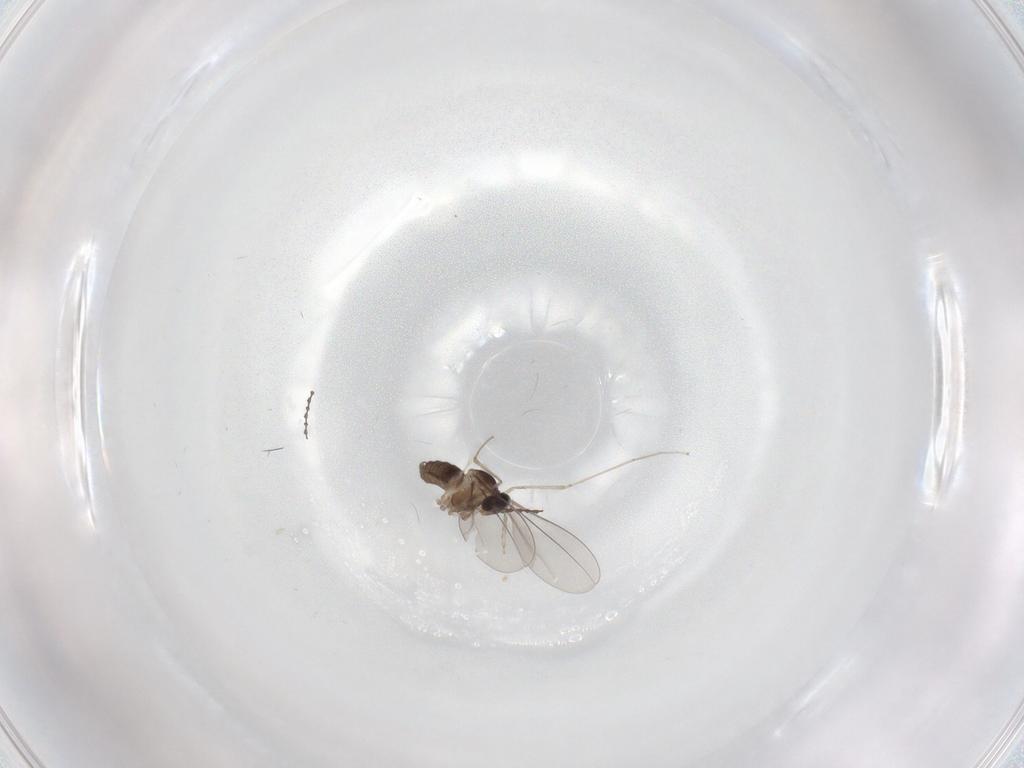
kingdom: Animalia
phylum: Arthropoda
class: Insecta
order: Diptera
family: Cecidomyiidae
